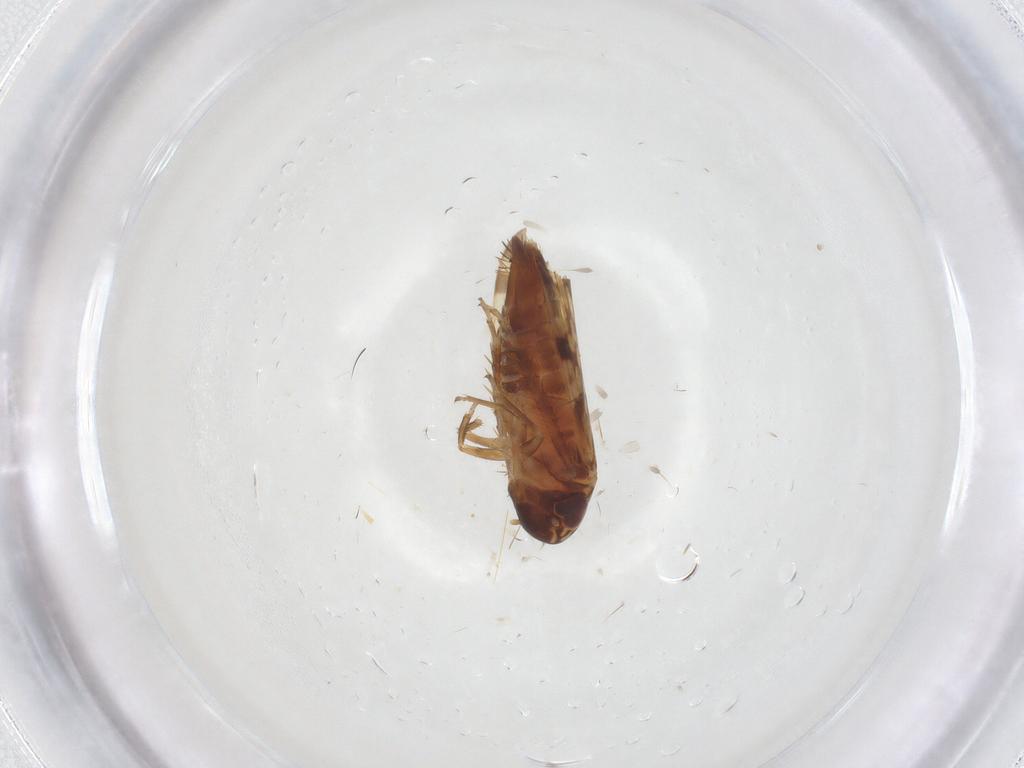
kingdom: Animalia
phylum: Arthropoda
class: Insecta
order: Hemiptera
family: Cicadellidae
